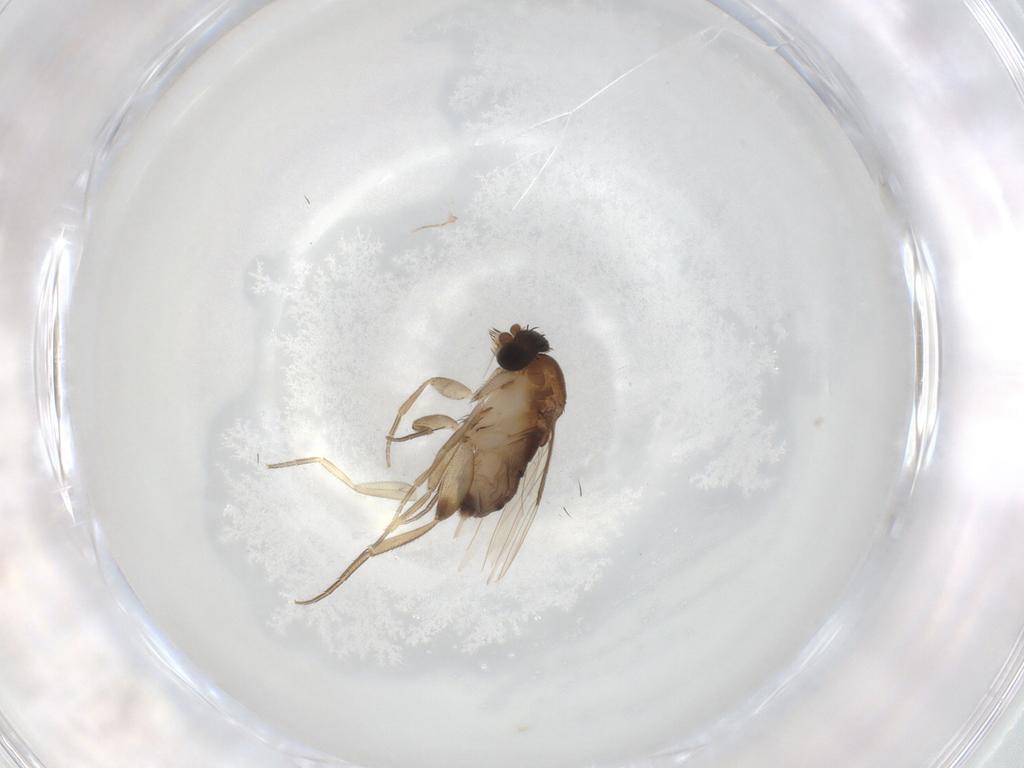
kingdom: Animalia
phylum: Arthropoda
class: Insecta
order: Diptera
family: Phoridae
